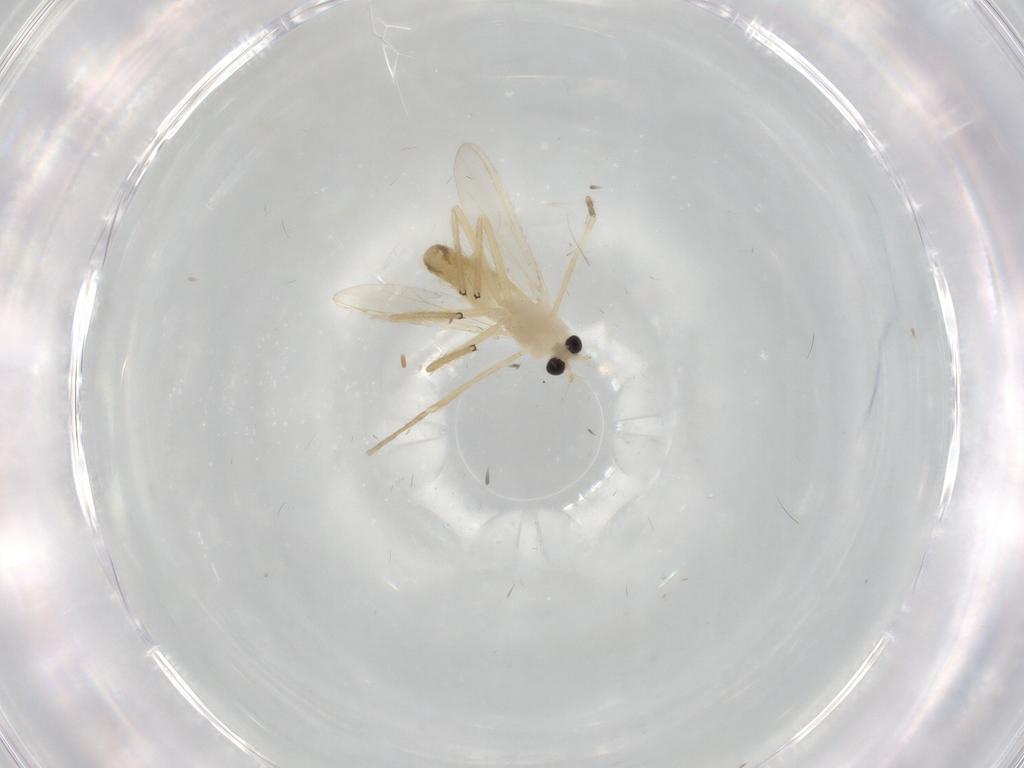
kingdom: Animalia
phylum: Arthropoda
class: Insecta
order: Diptera
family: Chironomidae
